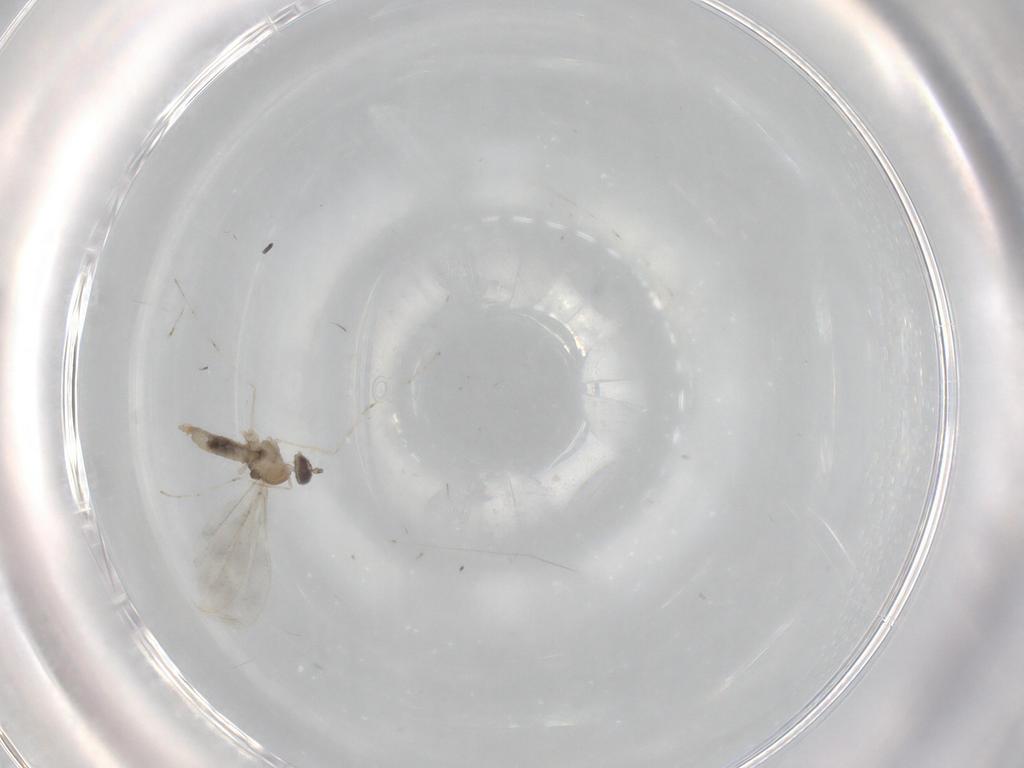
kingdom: Animalia
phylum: Arthropoda
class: Insecta
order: Diptera
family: Cecidomyiidae
